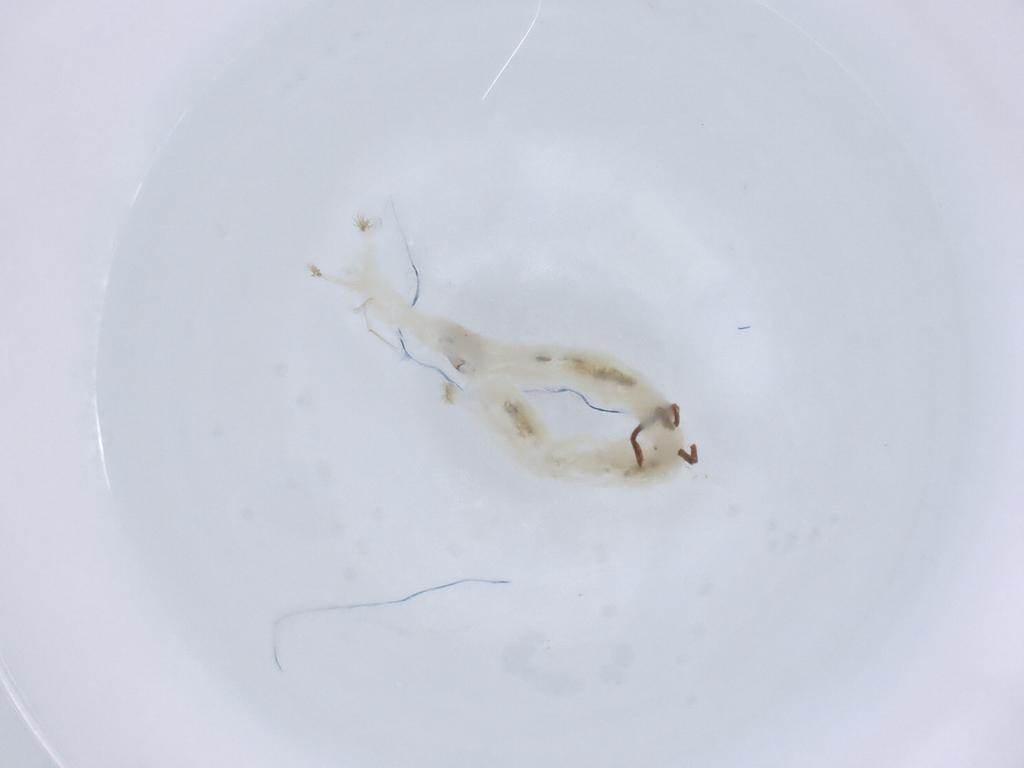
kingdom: Animalia
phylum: Arthropoda
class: Insecta
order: Diptera
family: Chironomidae
